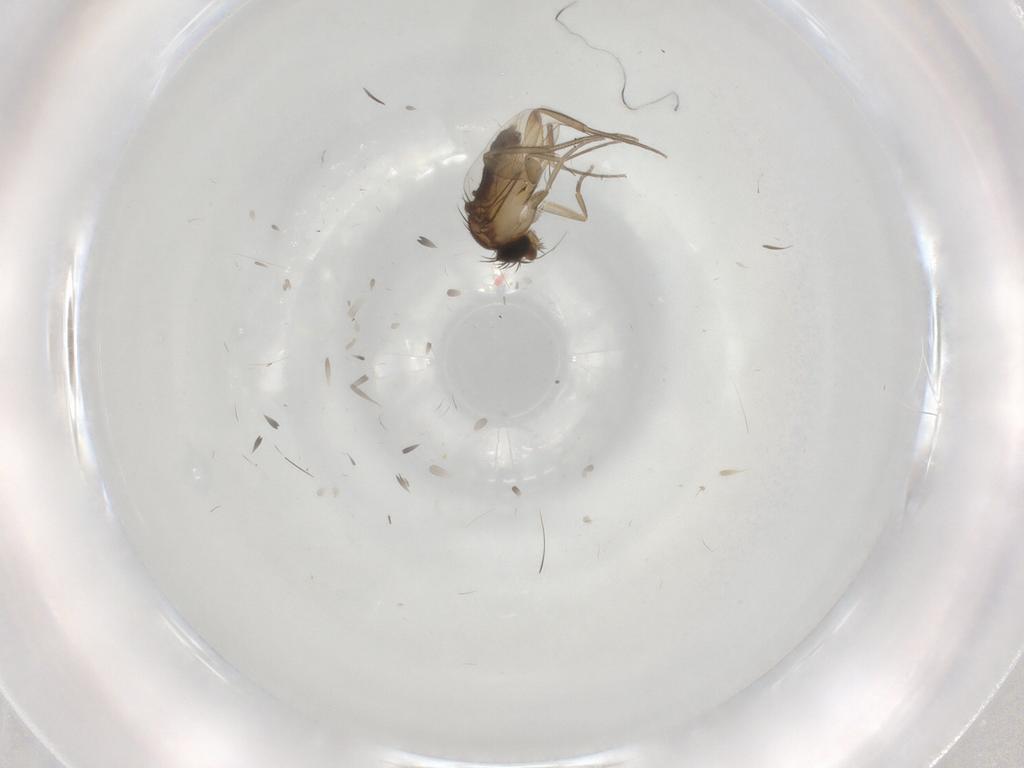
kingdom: Animalia
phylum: Arthropoda
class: Insecta
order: Diptera
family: Phoridae
